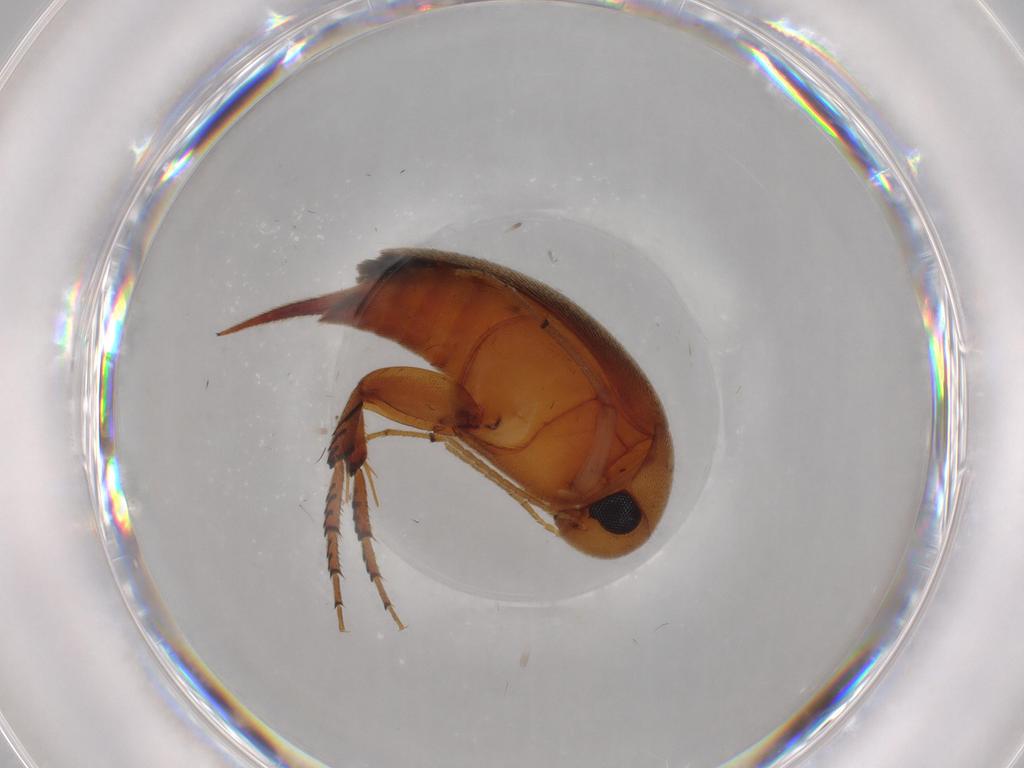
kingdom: Animalia
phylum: Arthropoda
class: Insecta
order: Coleoptera
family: Mordellidae
